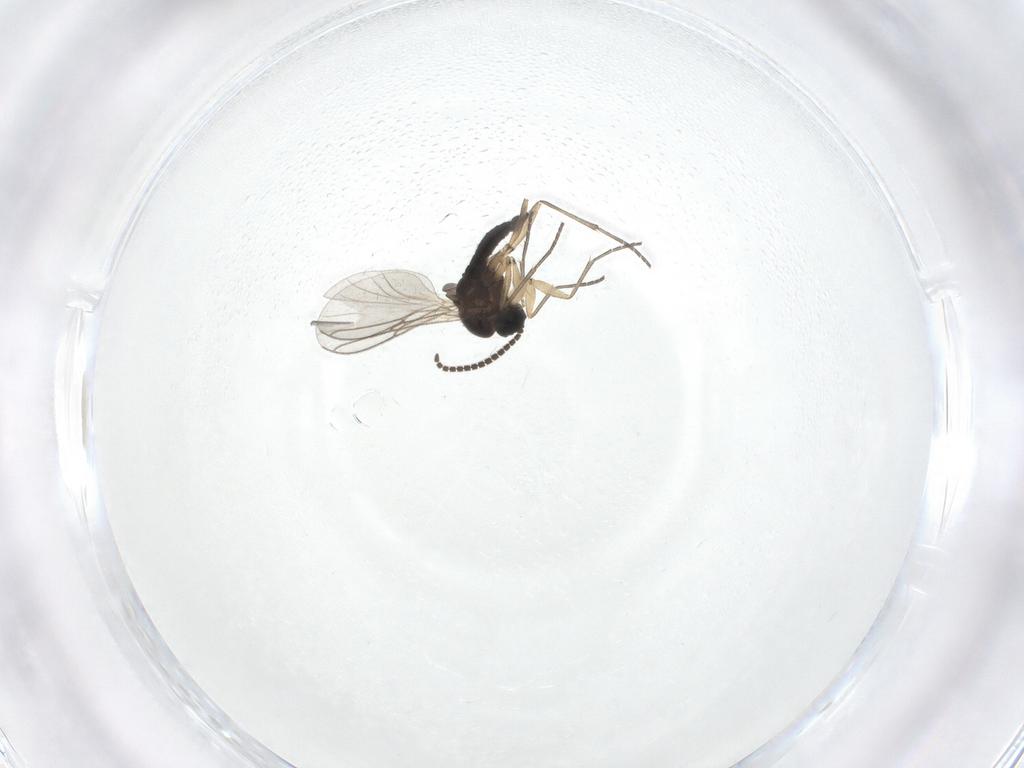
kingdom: Animalia
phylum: Arthropoda
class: Insecta
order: Diptera
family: Sciaridae
